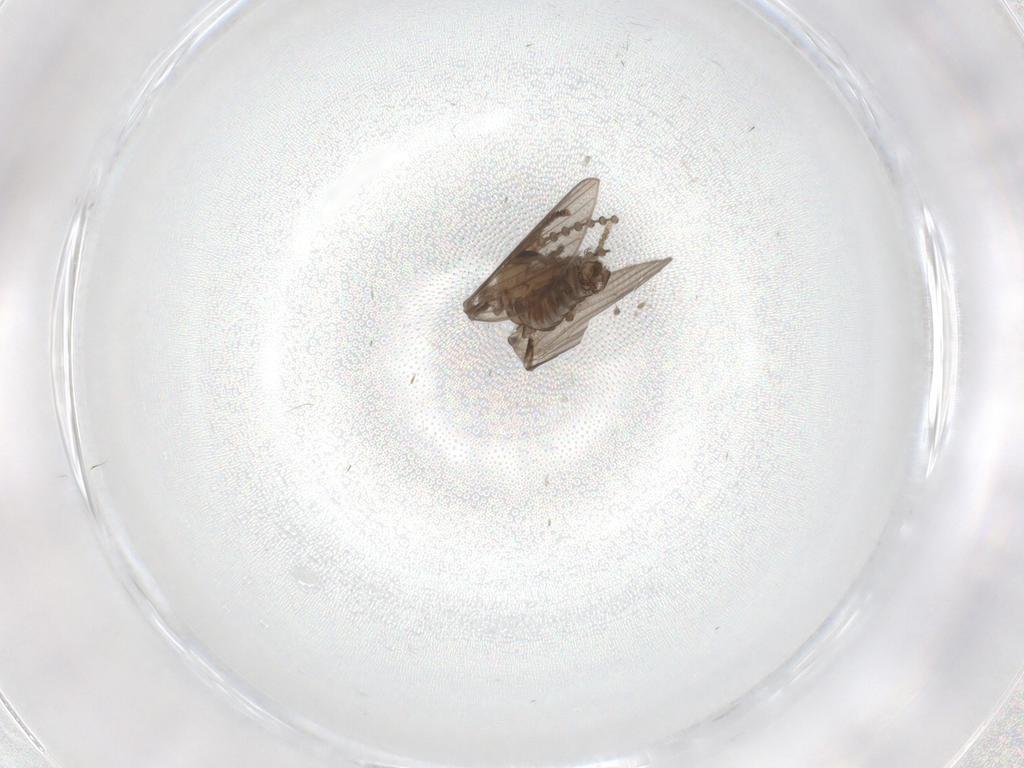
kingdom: Animalia
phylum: Arthropoda
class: Insecta
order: Diptera
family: Psychodidae
